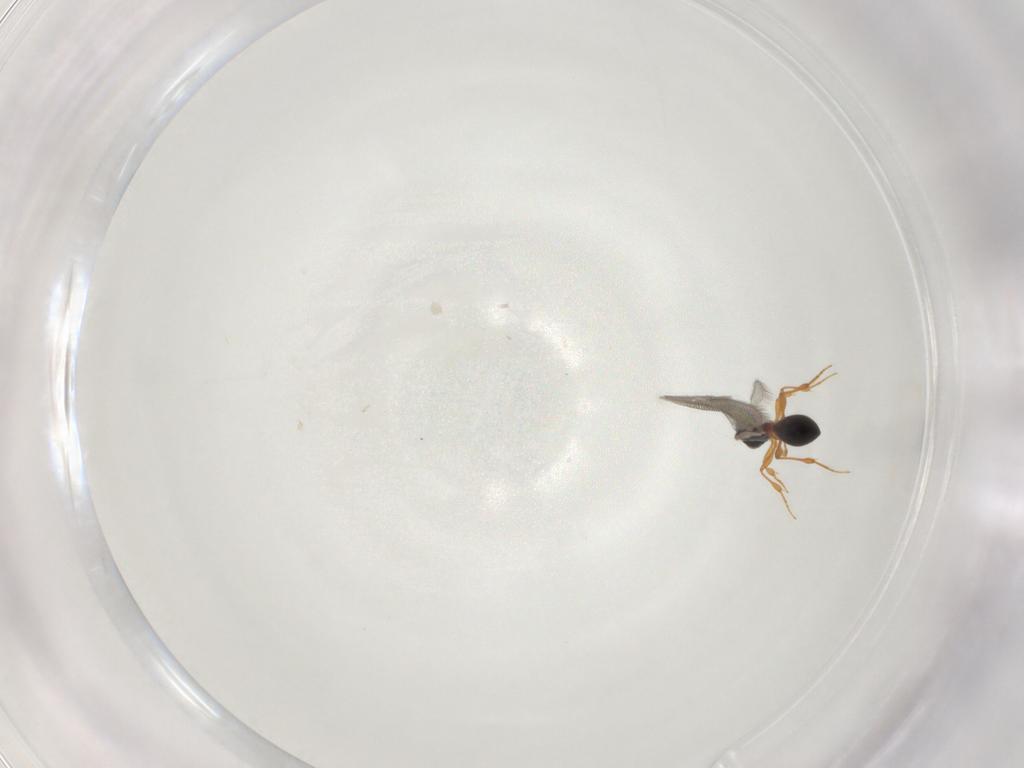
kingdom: Animalia
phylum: Arthropoda
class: Insecta
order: Hymenoptera
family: Platygastridae
